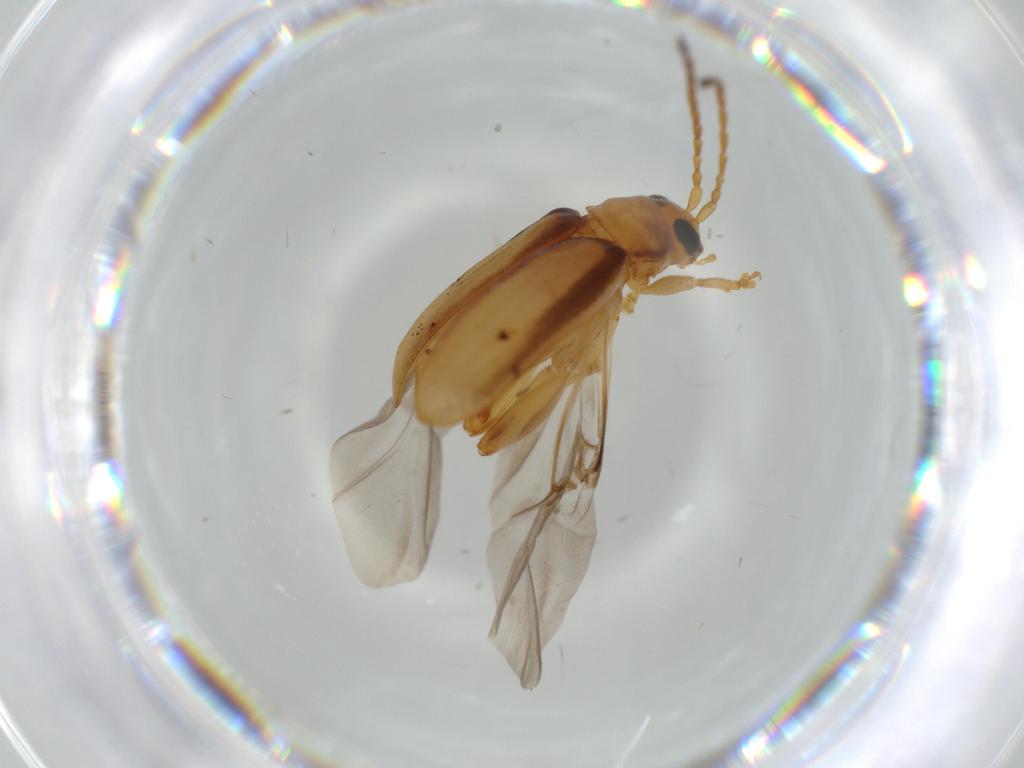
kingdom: Animalia
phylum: Arthropoda
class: Insecta
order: Coleoptera
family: Chrysomelidae
